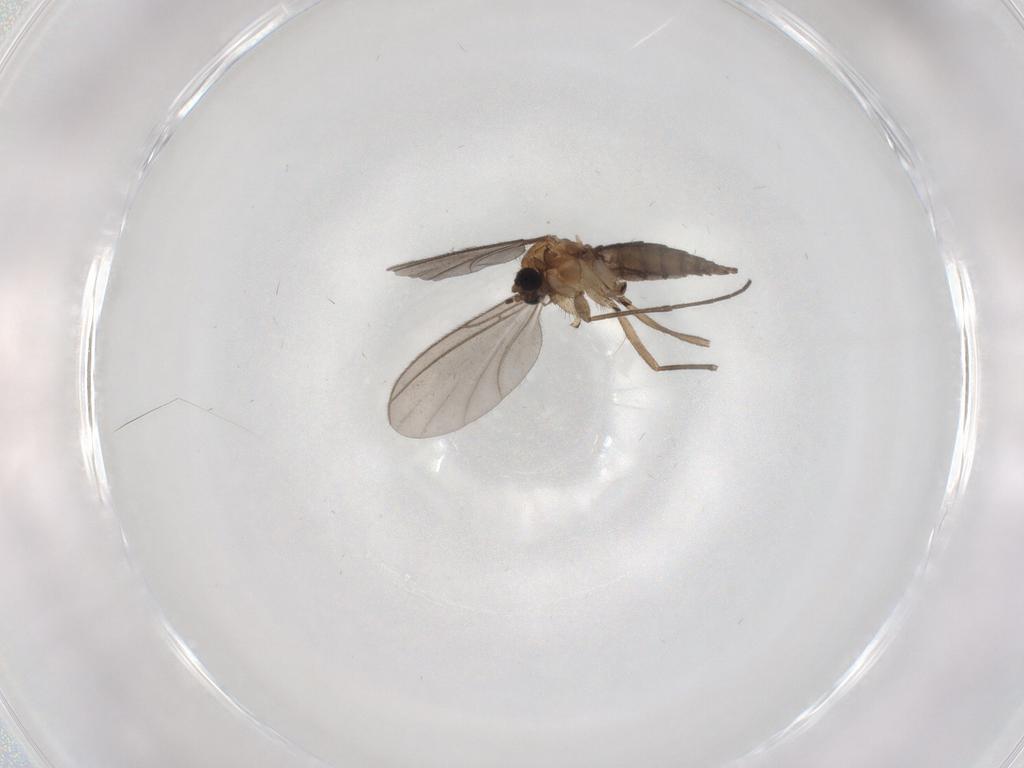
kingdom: Animalia
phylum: Arthropoda
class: Insecta
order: Diptera
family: Sciaridae
